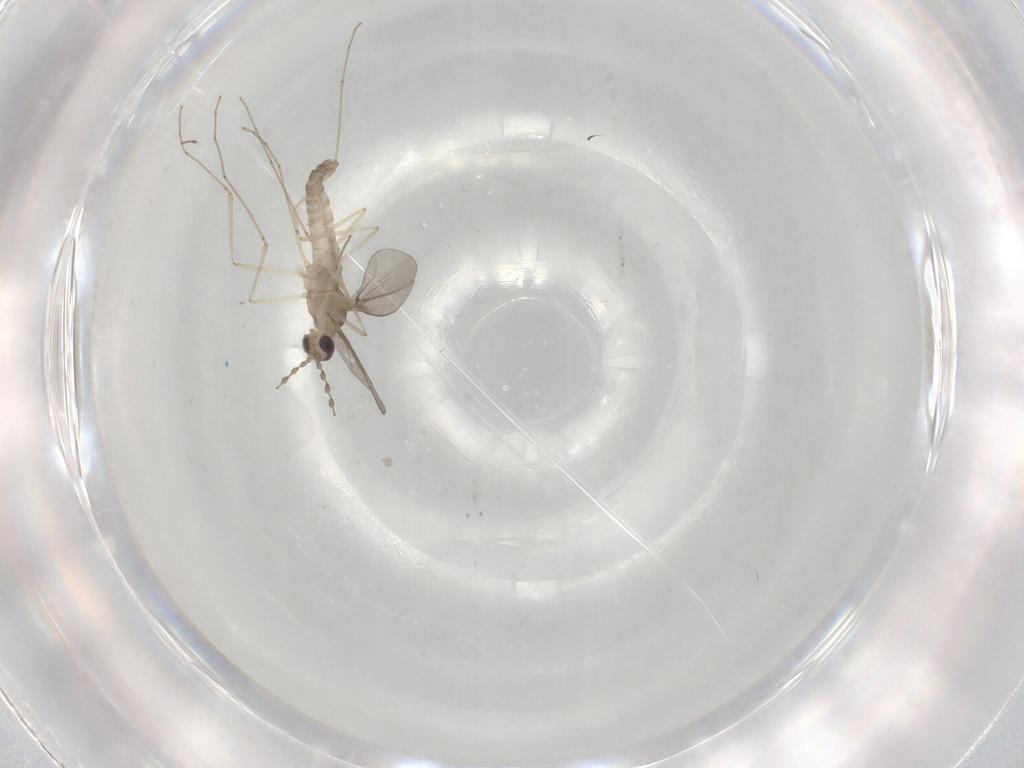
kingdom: Animalia
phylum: Arthropoda
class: Insecta
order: Diptera
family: Cecidomyiidae
